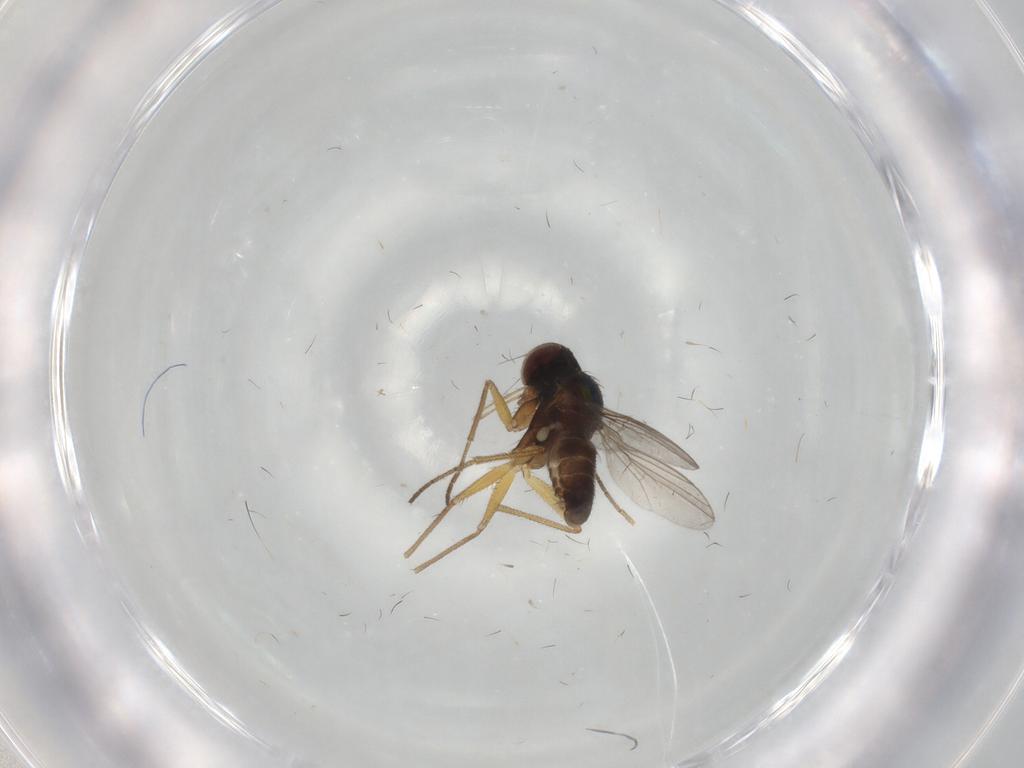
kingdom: Animalia
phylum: Arthropoda
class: Insecta
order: Diptera
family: Dolichopodidae
